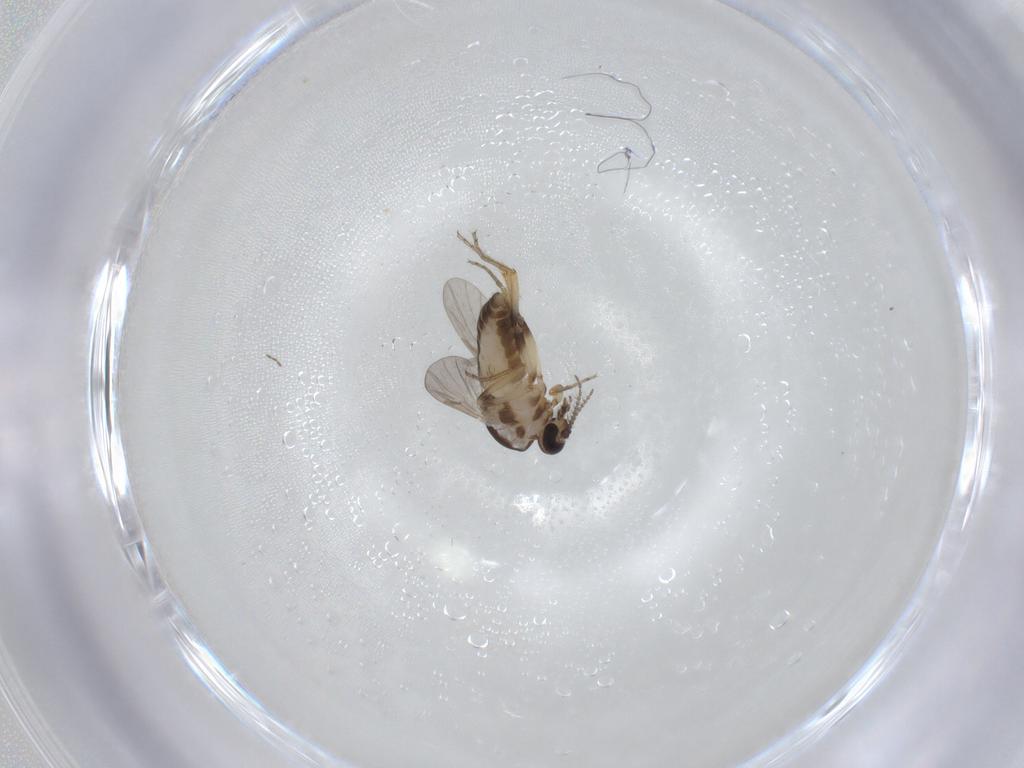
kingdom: Animalia
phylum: Arthropoda
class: Insecta
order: Diptera
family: Ceratopogonidae
